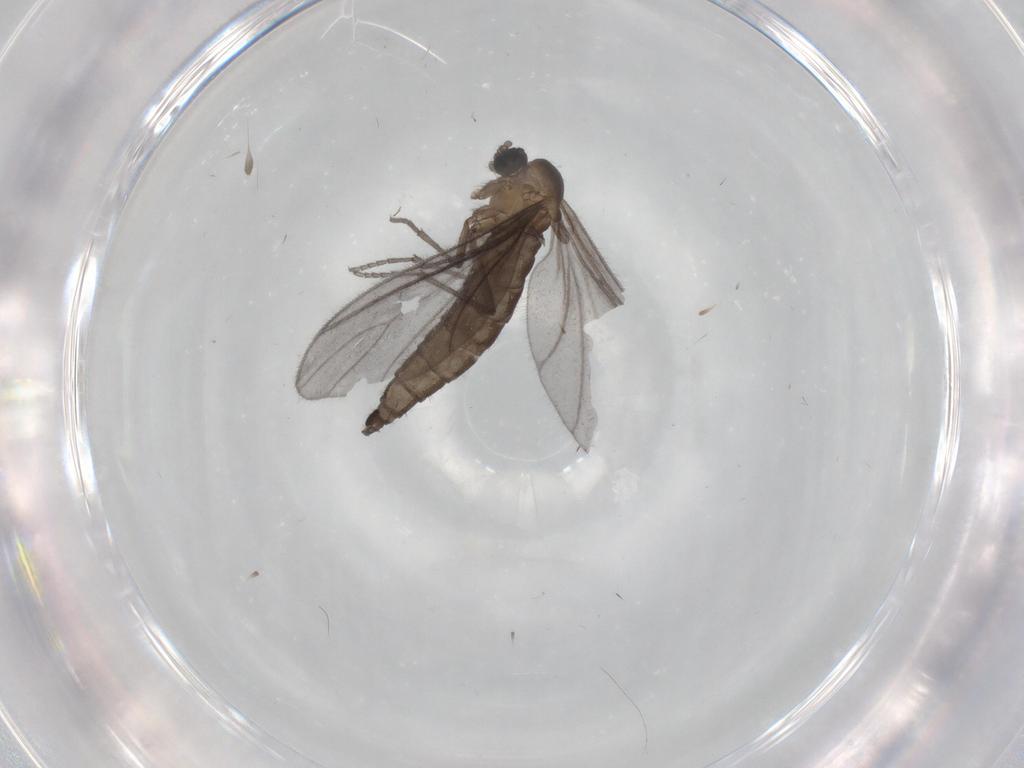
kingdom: Animalia
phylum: Arthropoda
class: Insecta
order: Diptera
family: Sciaridae
